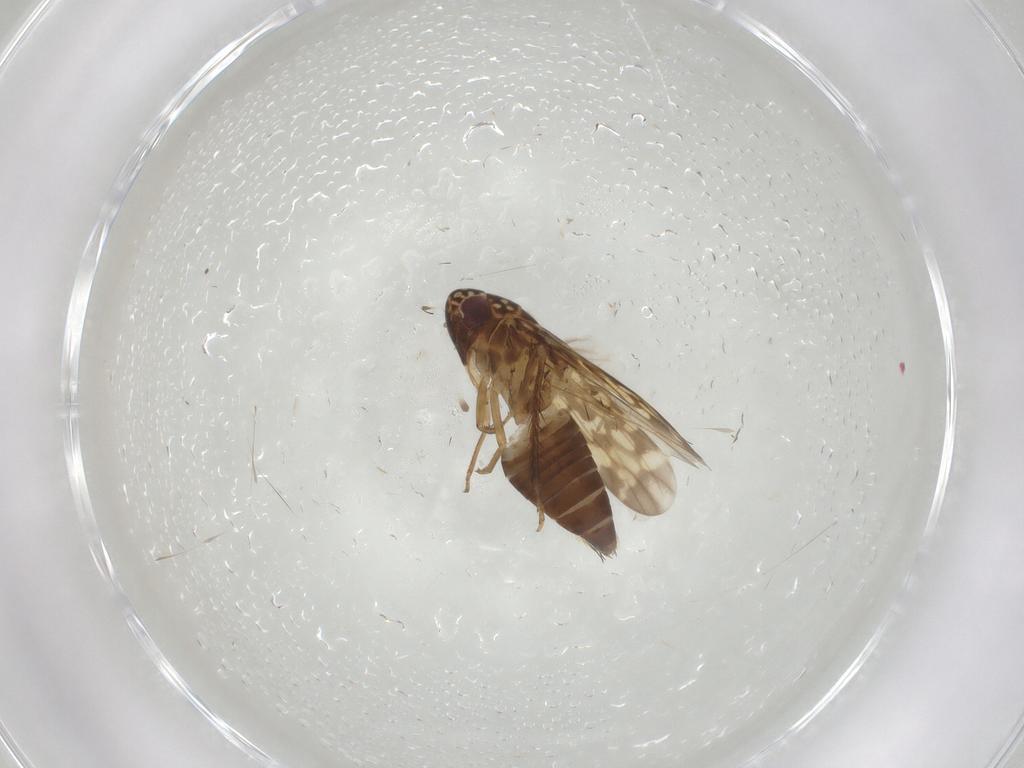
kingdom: Animalia
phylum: Arthropoda
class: Insecta
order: Hemiptera
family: Cicadellidae
